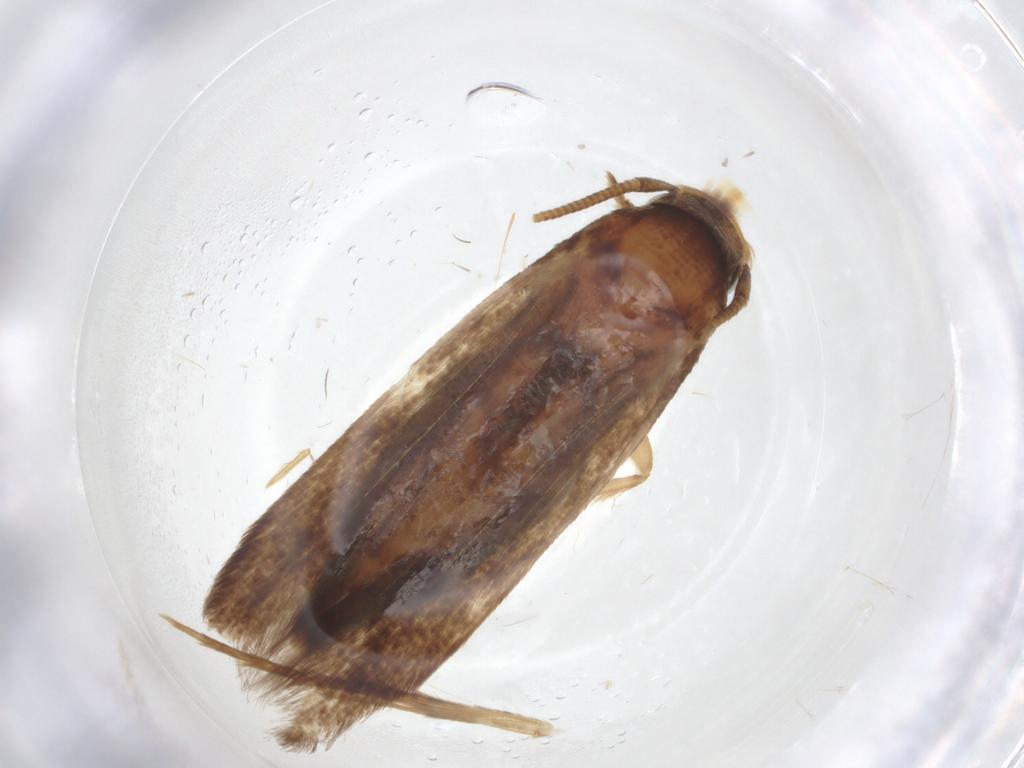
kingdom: Animalia
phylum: Arthropoda
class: Insecta
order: Lepidoptera
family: Tineidae
